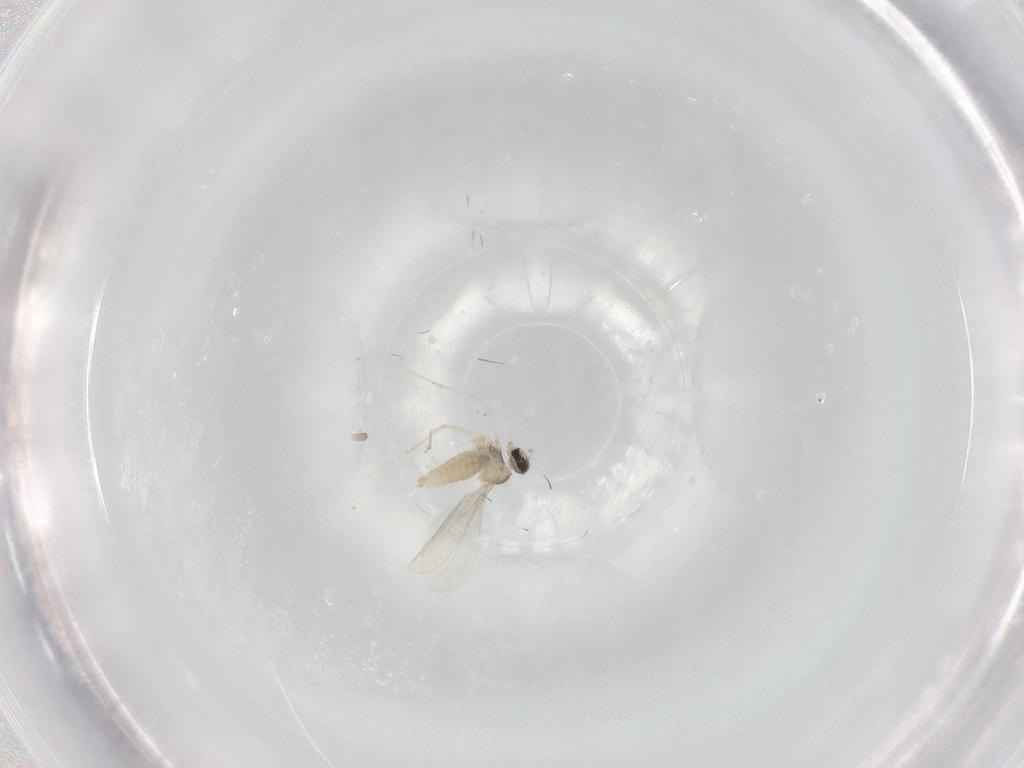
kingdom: Animalia
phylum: Arthropoda
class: Insecta
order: Diptera
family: Cecidomyiidae
